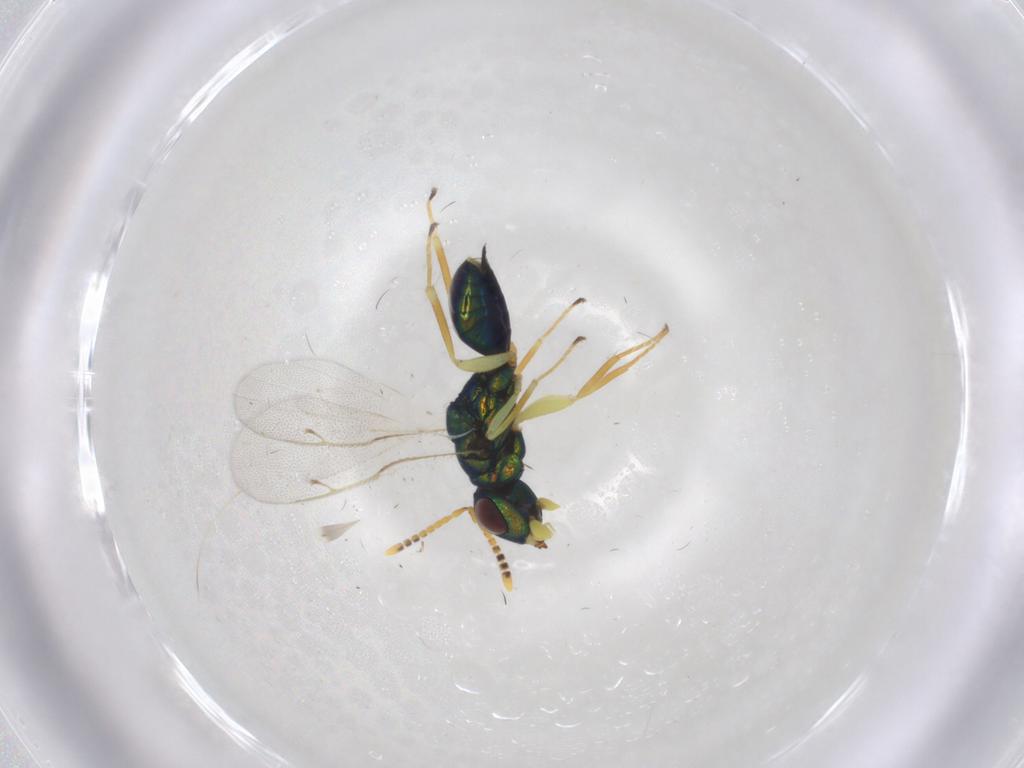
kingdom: Animalia
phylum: Arthropoda
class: Insecta
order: Hymenoptera
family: Pteromalidae
